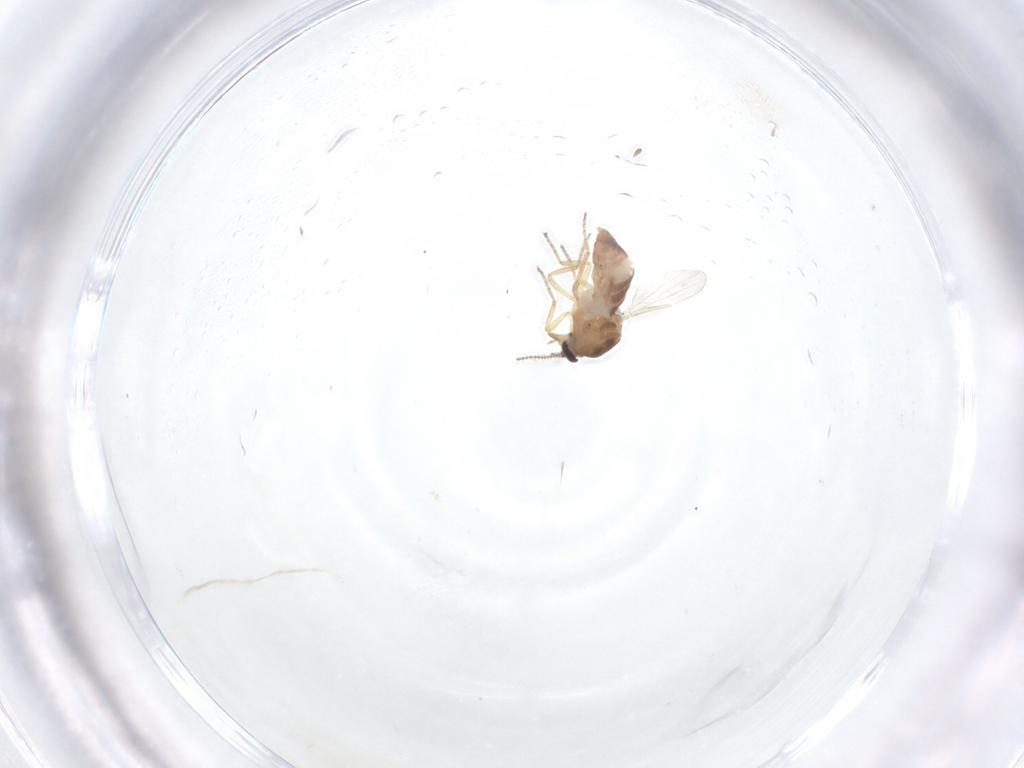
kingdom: Animalia
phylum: Arthropoda
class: Insecta
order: Diptera
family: Ceratopogonidae
